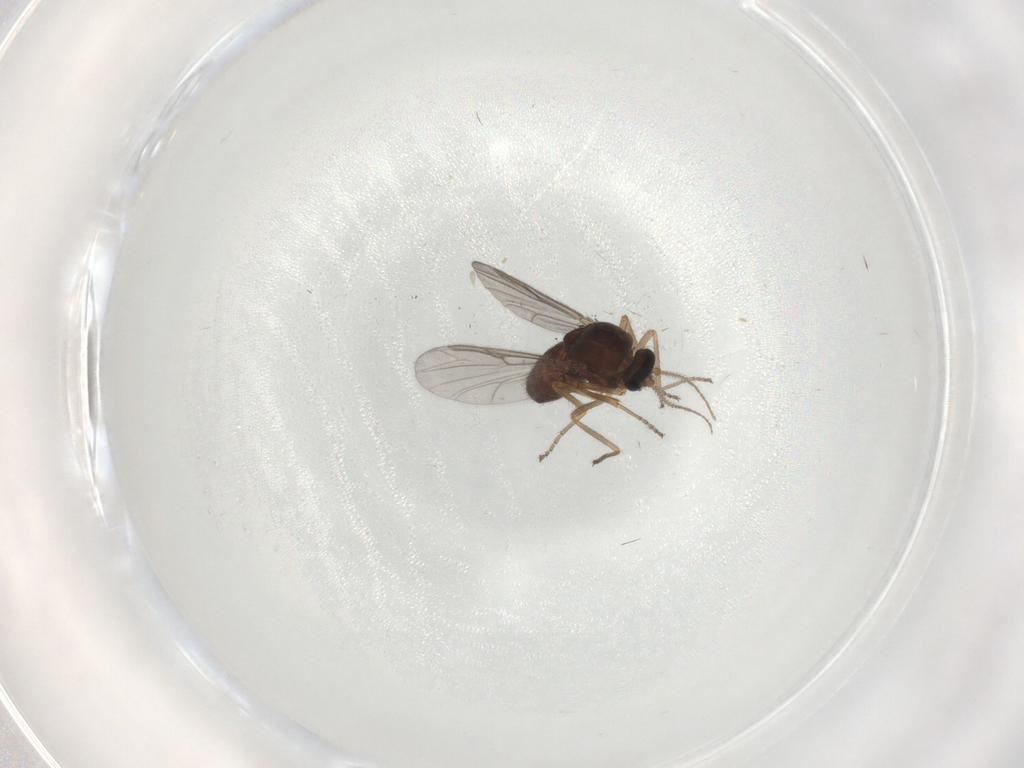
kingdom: Animalia
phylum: Arthropoda
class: Insecta
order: Diptera
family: Ceratopogonidae
